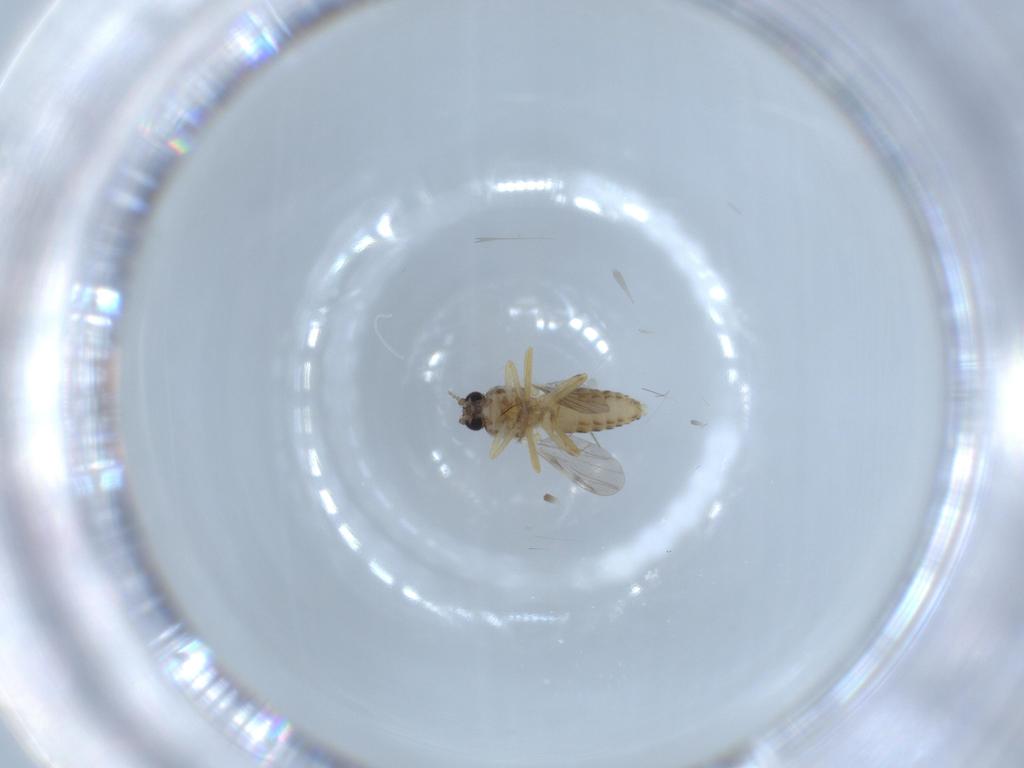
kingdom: Animalia
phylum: Arthropoda
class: Insecta
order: Diptera
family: Ceratopogonidae
